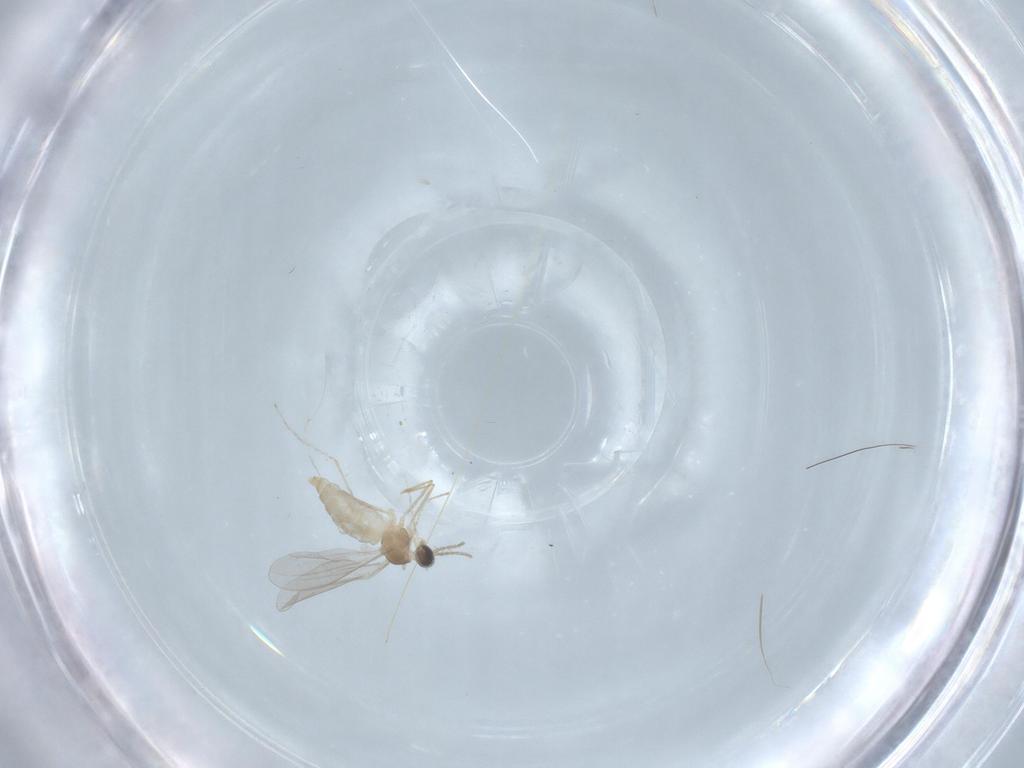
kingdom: Animalia
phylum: Arthropoda
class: Insecta
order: Diptera
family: Cecidomyiidae
